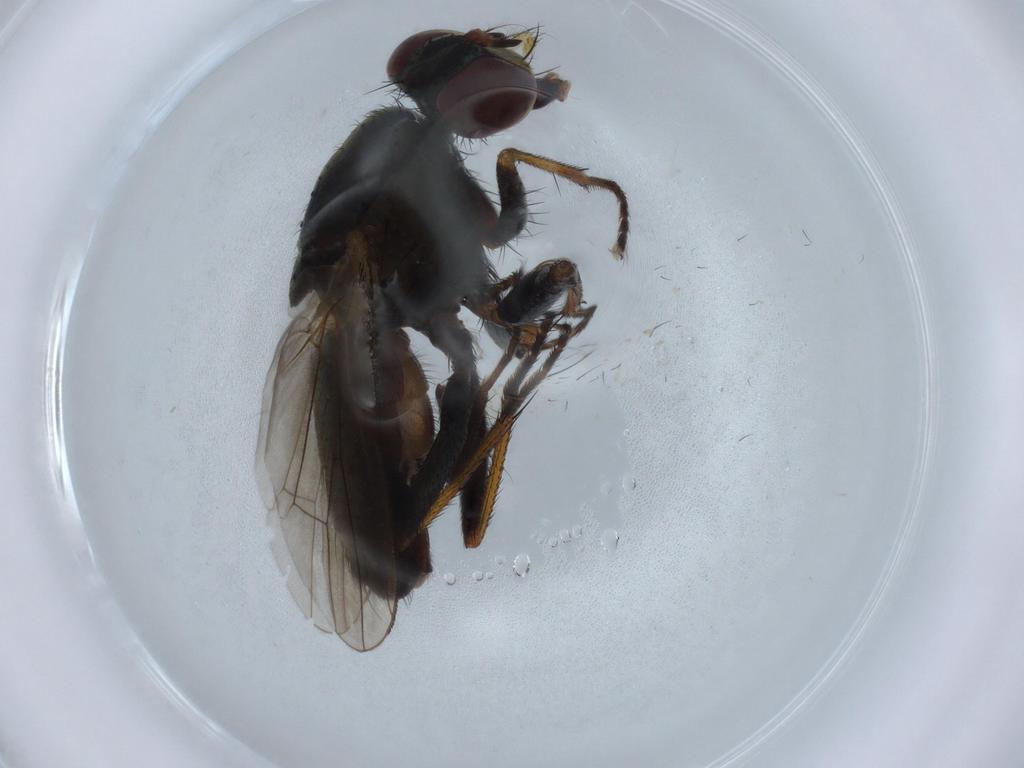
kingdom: Animalia
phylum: Arthropoda
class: Insecta
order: Diptera
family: Muscidae
